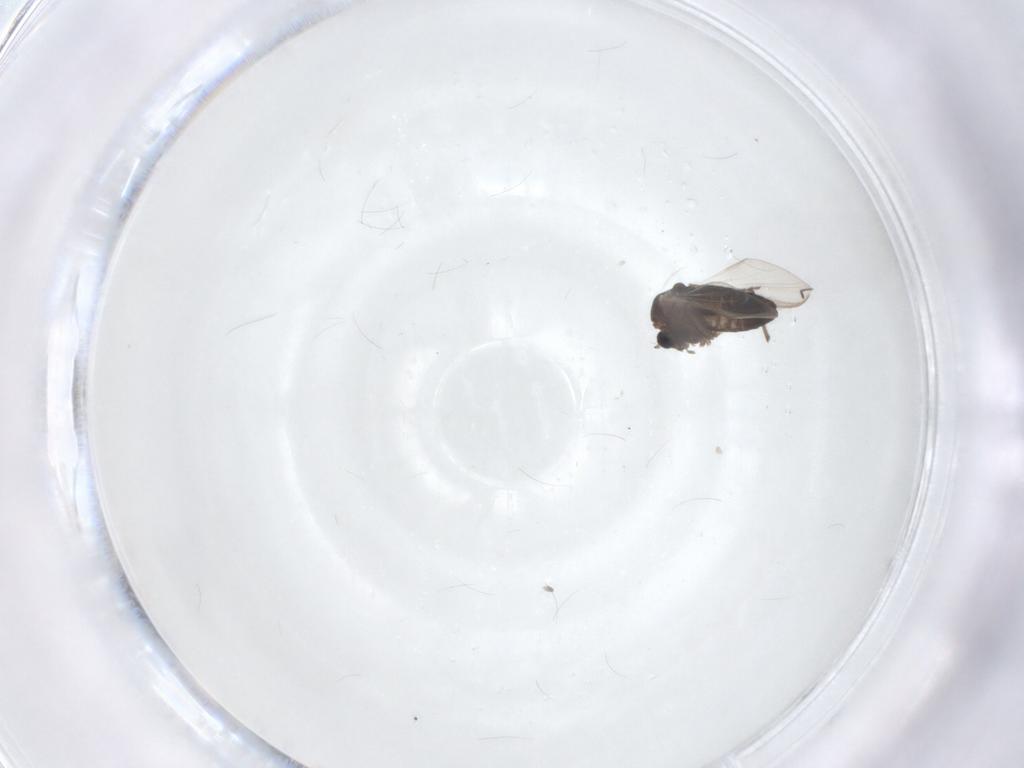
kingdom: Animalia
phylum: Arthropoda
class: Insecta
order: Diptera
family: Chironomidae
